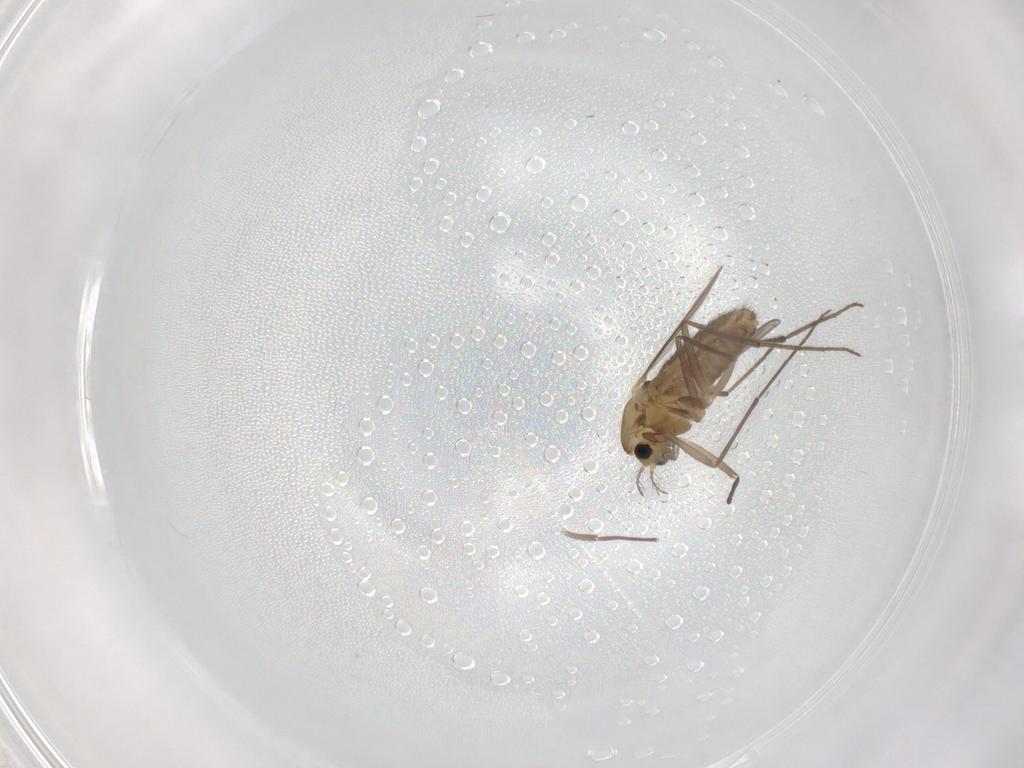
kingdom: Animalia
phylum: Arthropoda
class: Insecta
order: Diptera
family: Chironomidae
